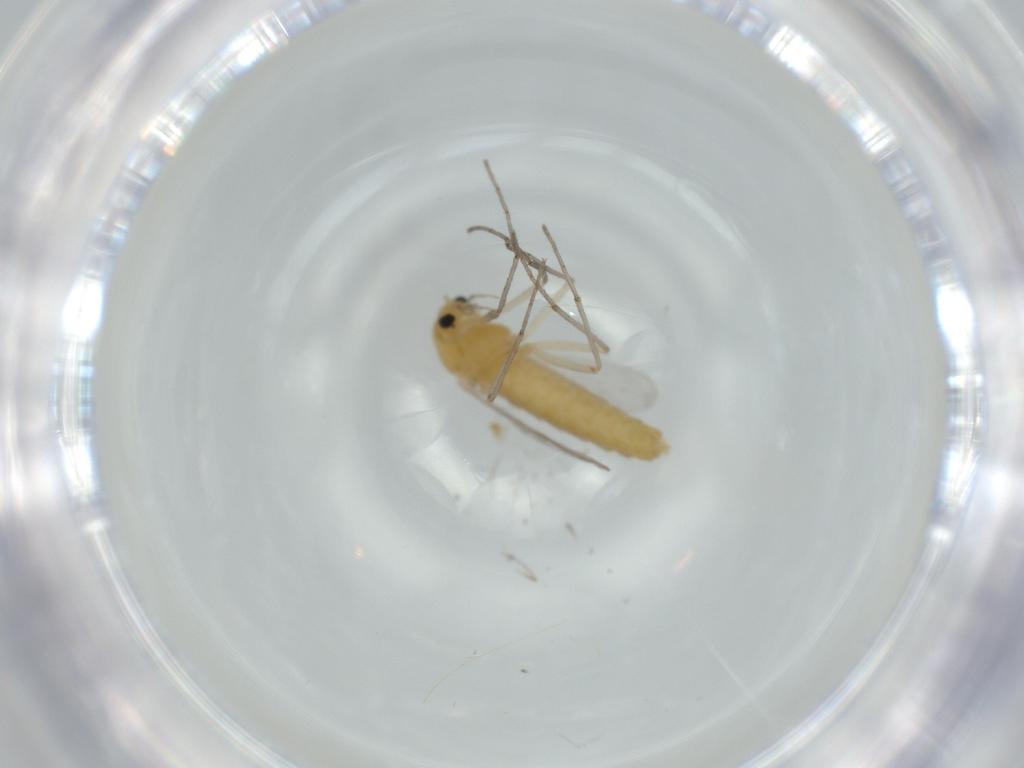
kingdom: Animalia
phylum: Arthropoda
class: Insecta
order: Diptera
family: Chironomidae
